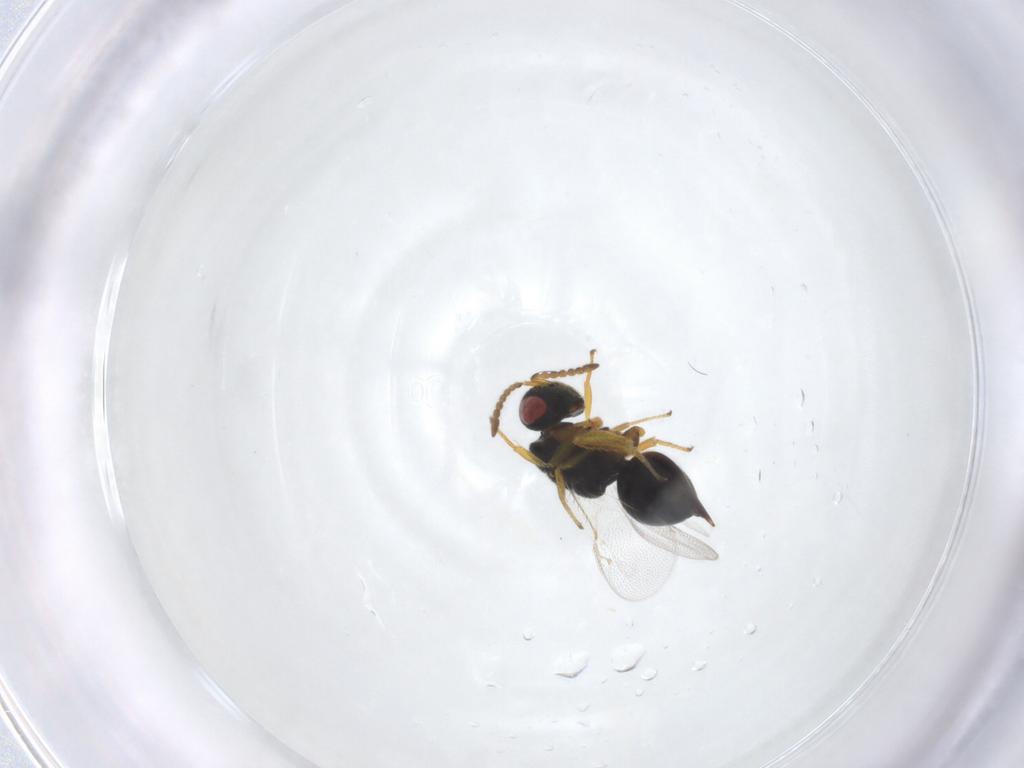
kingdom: Animalia
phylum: Arthropoda
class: Insecta
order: Hymenoptera
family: Eurytomidae
